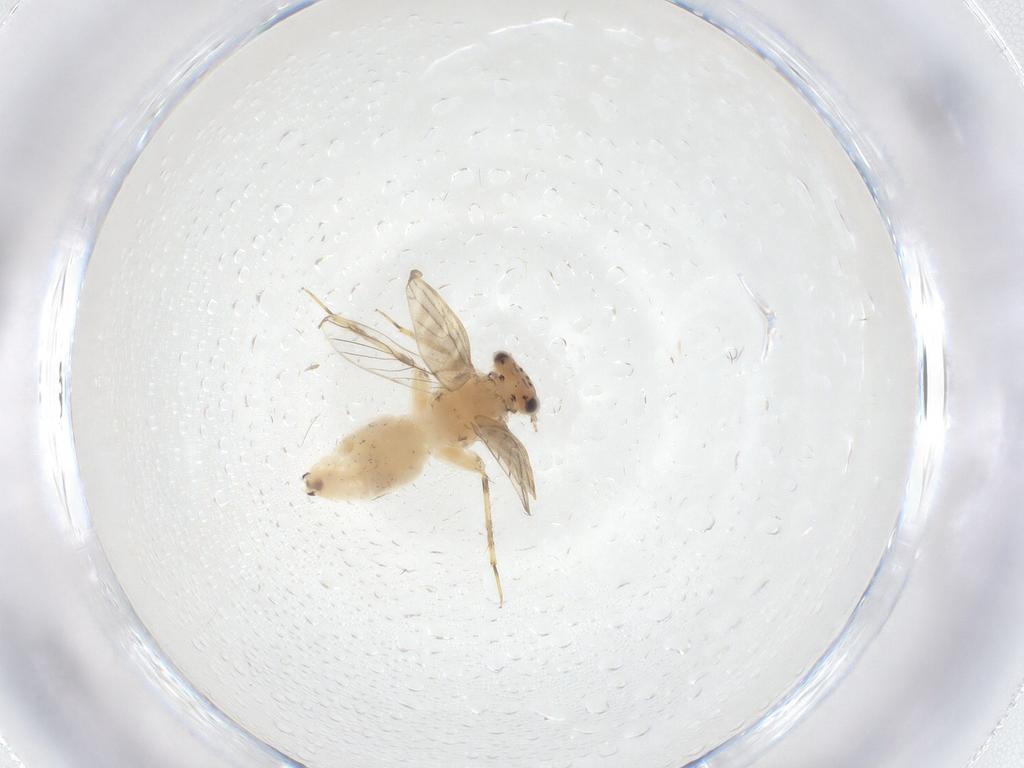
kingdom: Animalia
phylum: Arthropoda
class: Insecta
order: Psocodea
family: Lepidopsocidae
